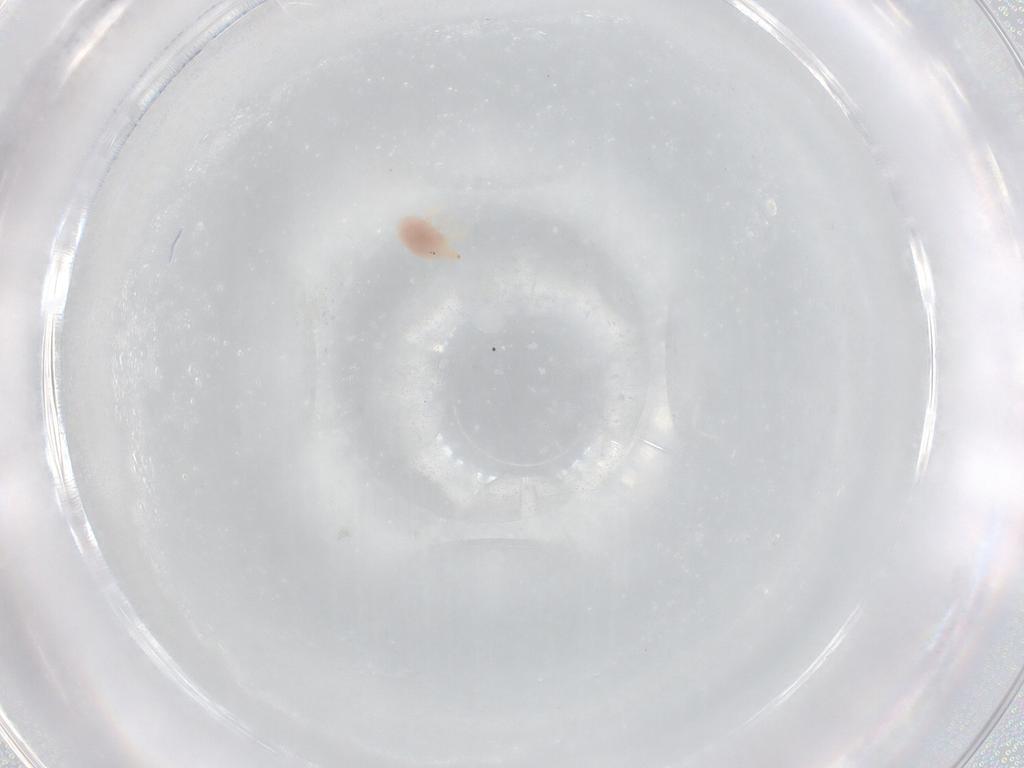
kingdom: Animalia
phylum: Arthropoda
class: Arachnida
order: Trombidiformes
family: Bdellidae
